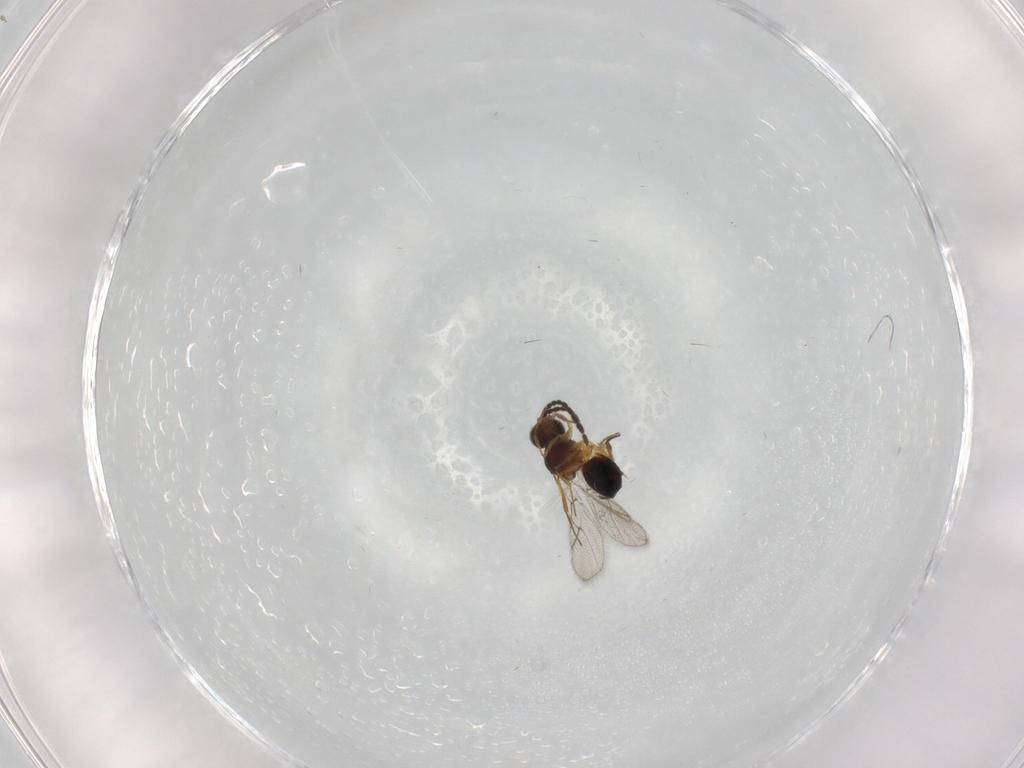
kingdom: Animalia
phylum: Arthropoda
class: Insecta
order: Hymenoptera
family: Figitidae
